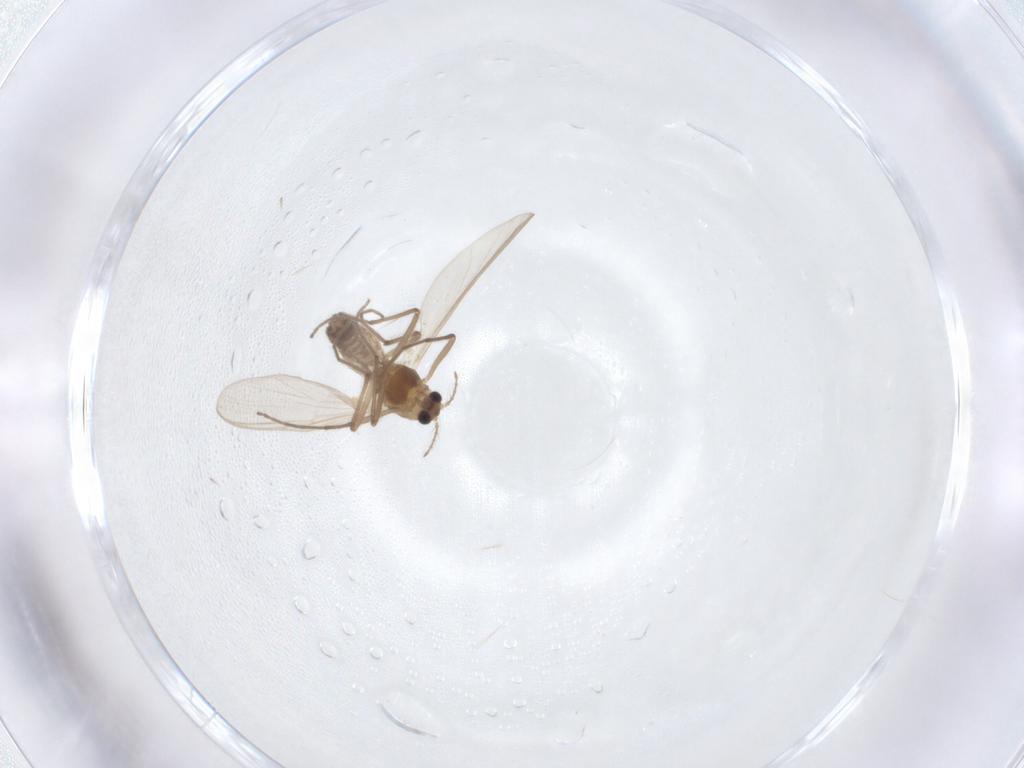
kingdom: Animalia
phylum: Arthropoda
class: Insecta
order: Diptera
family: Chironomidae
